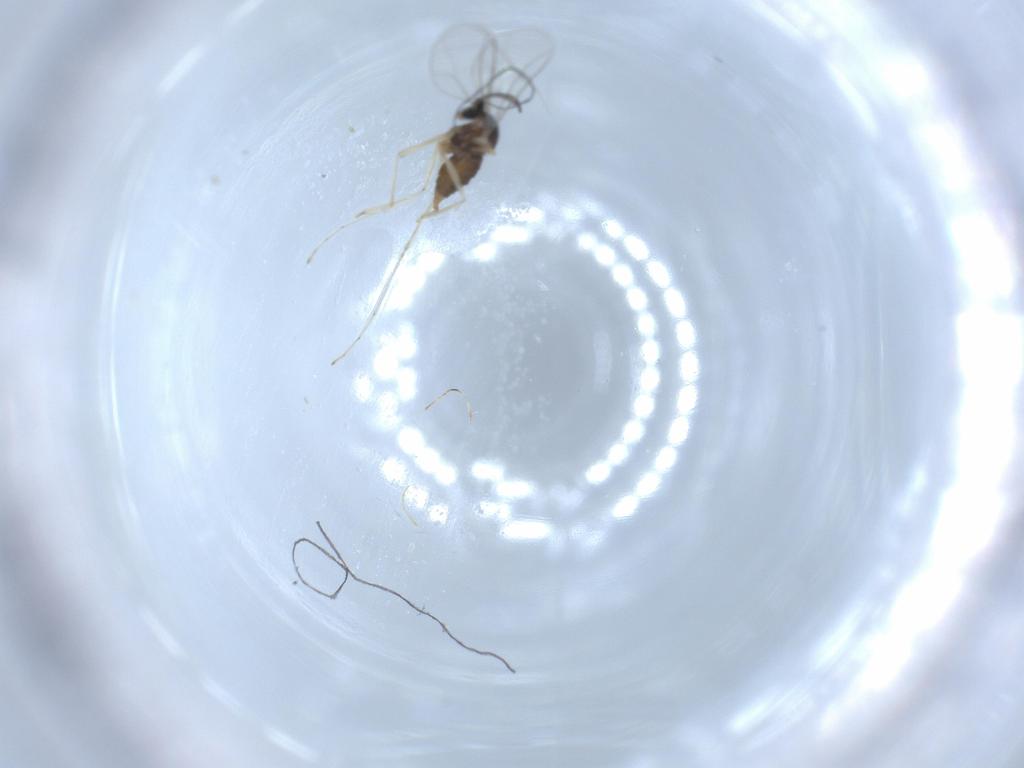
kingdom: Animalia
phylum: Arthropoda
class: Insecta
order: Diptera
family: Cecidomyiidae
